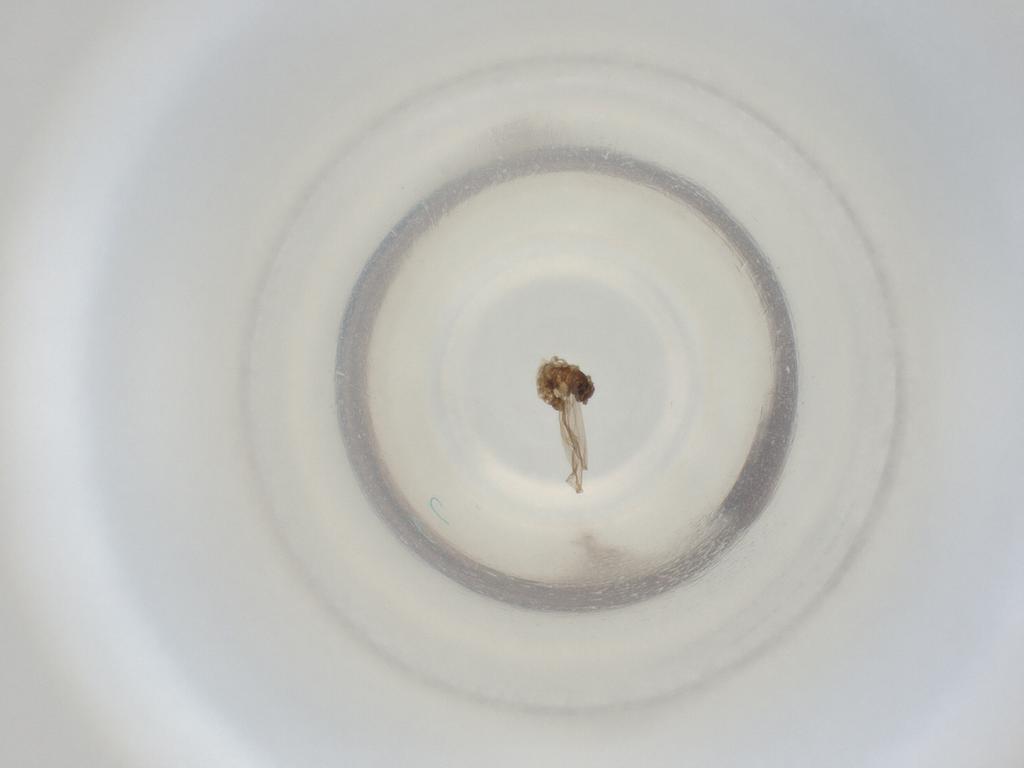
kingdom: Animalia
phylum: Arthropoda
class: Insecta
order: Diptera
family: Cecidomyiidae
